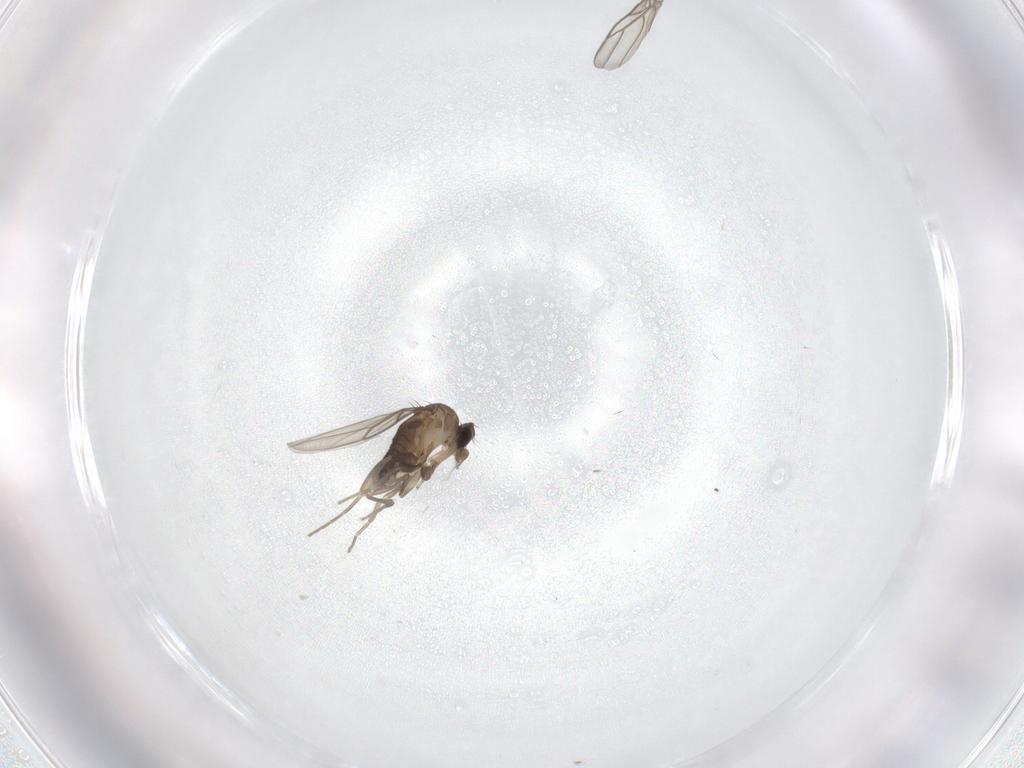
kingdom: Animalia
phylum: Arthropoda
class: Insecta
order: Diptera
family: Phoridae
